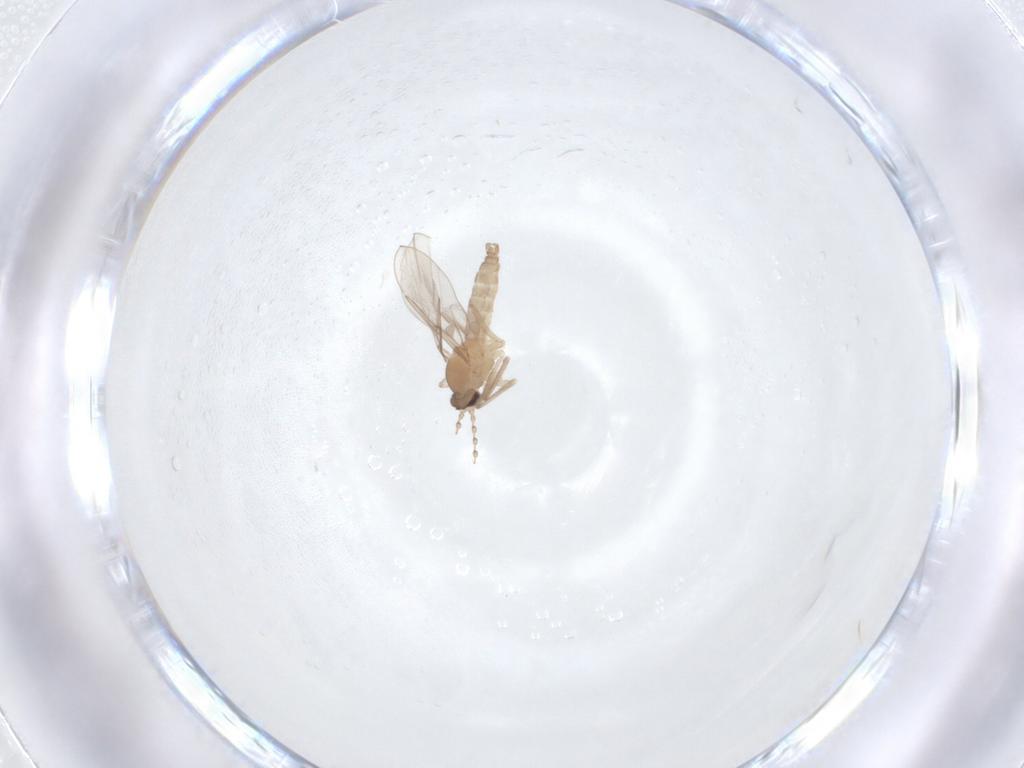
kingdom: Animalia
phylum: Arthropoda
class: Insecta
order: Diptera
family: Cecidomyiidae
